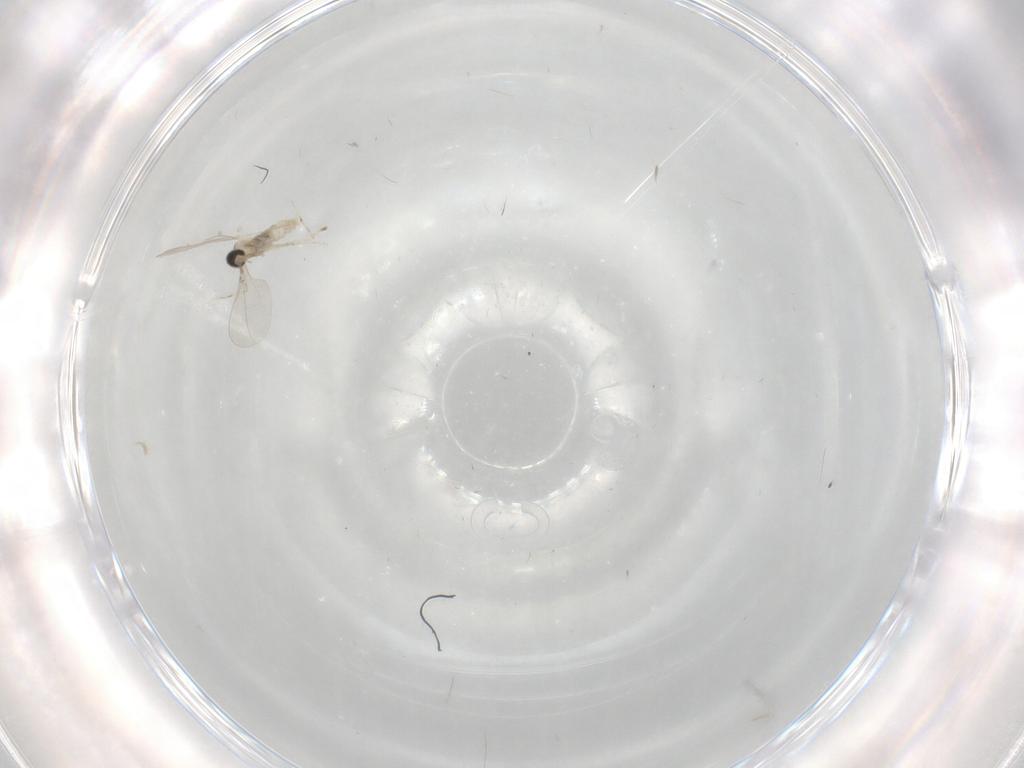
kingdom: Animalia
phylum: Arthropoda
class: Insecta
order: Diptera
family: Cecidomyiidae
